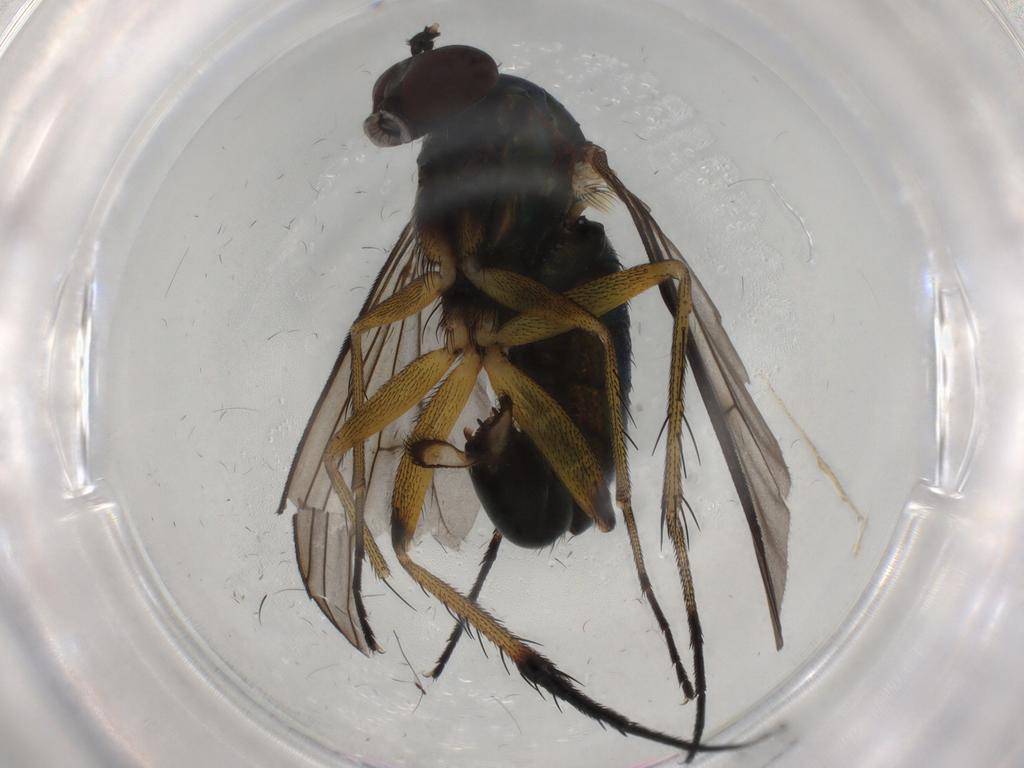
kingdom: Animalia
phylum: Arthropoda
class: Insecta
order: Diptera
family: Dolichopodidae
